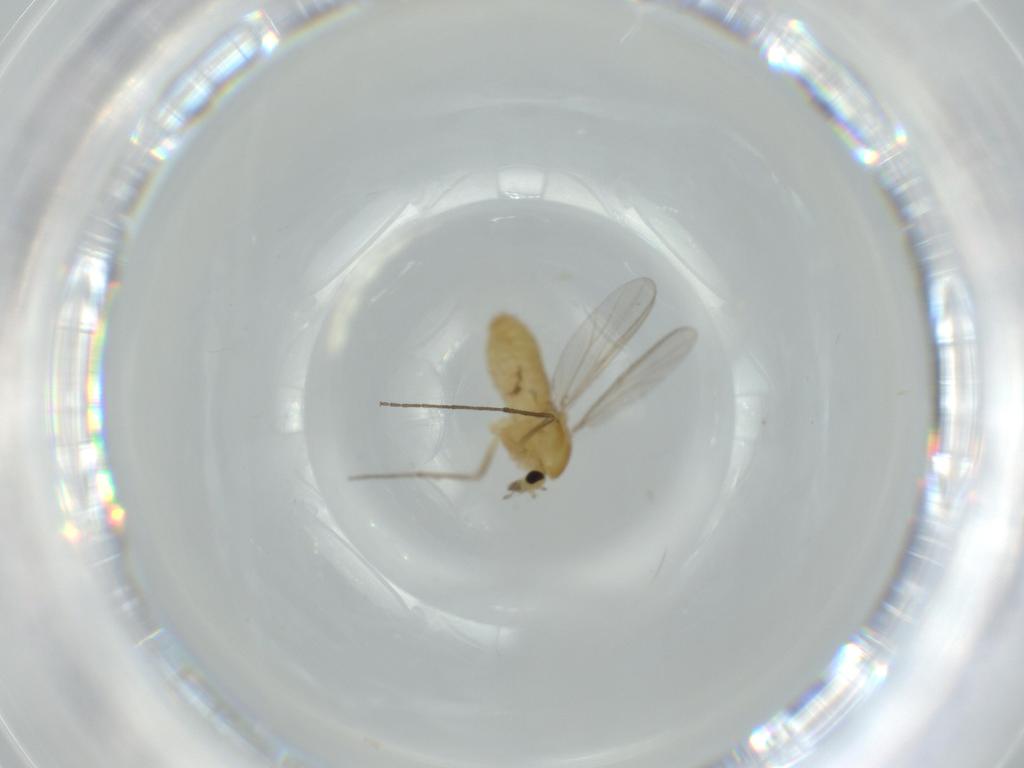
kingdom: Animalia
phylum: Arthropoda
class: Insecta
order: Diptera
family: Chironomidae
